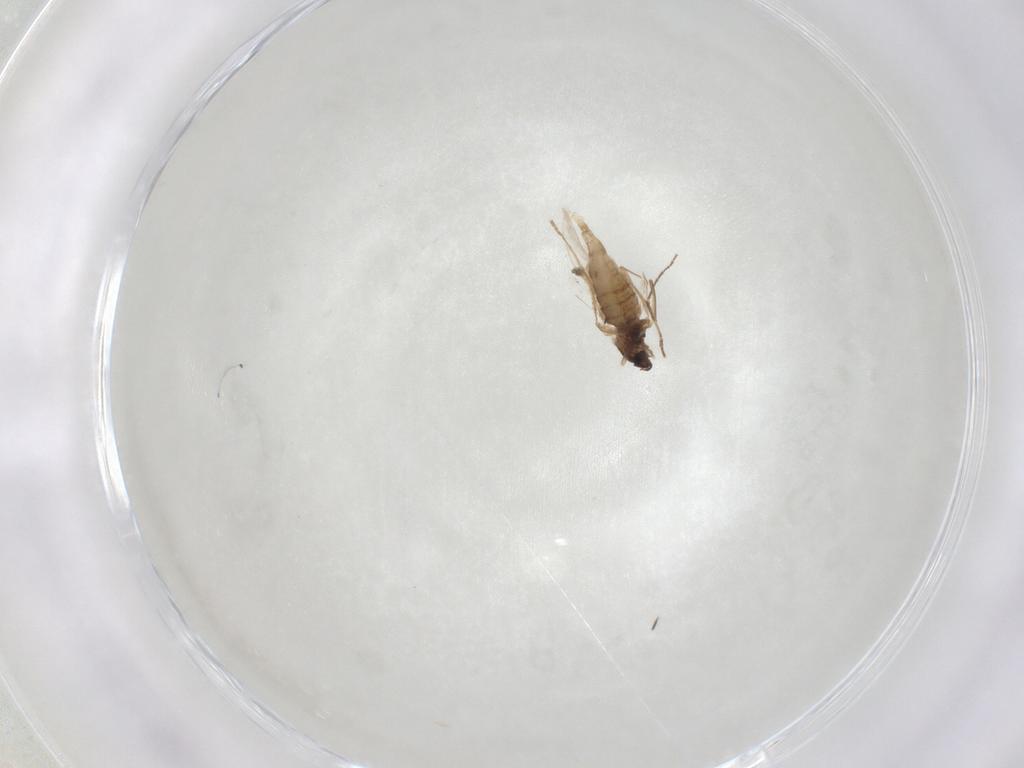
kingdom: Animalia
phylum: Arthropoda
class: Insecta
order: Diptera
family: Cecidomyiidae
